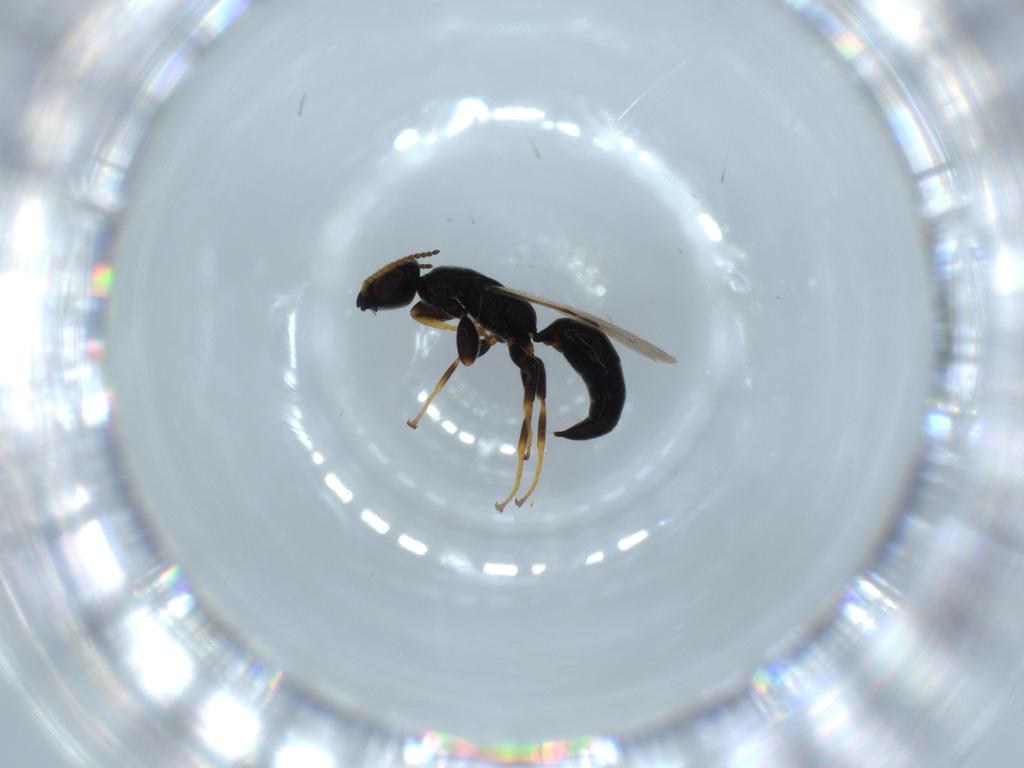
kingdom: Animalia
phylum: Arthropoda
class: Insecta
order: Hymenoptera
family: Bethylidae
